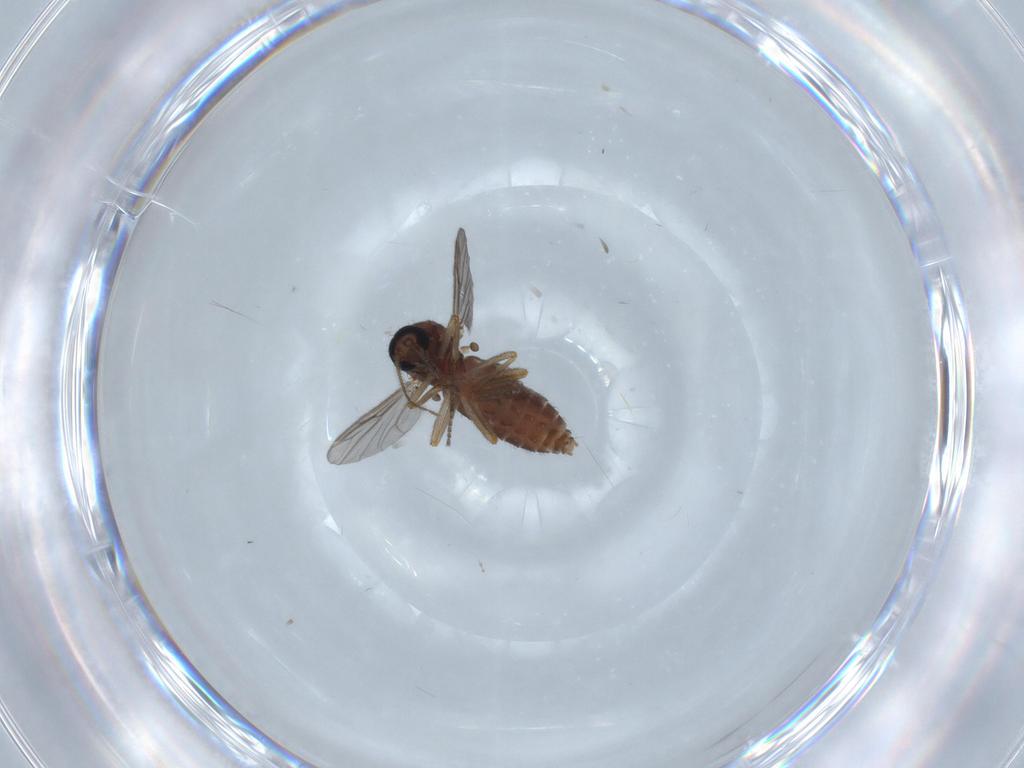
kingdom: Animalia
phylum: Arthropoda
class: Insecta
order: Diptera
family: Ceratopogonidae
